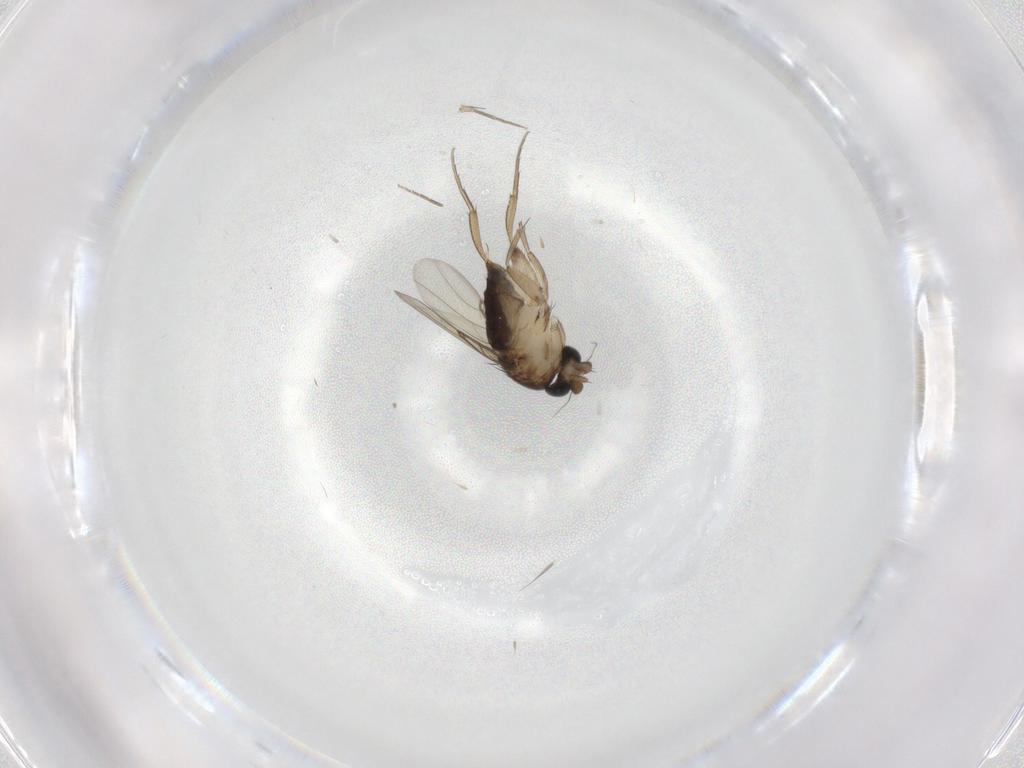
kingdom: Animalia
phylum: Arthropoda
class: Insecta
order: Diptera
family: Phoridae
